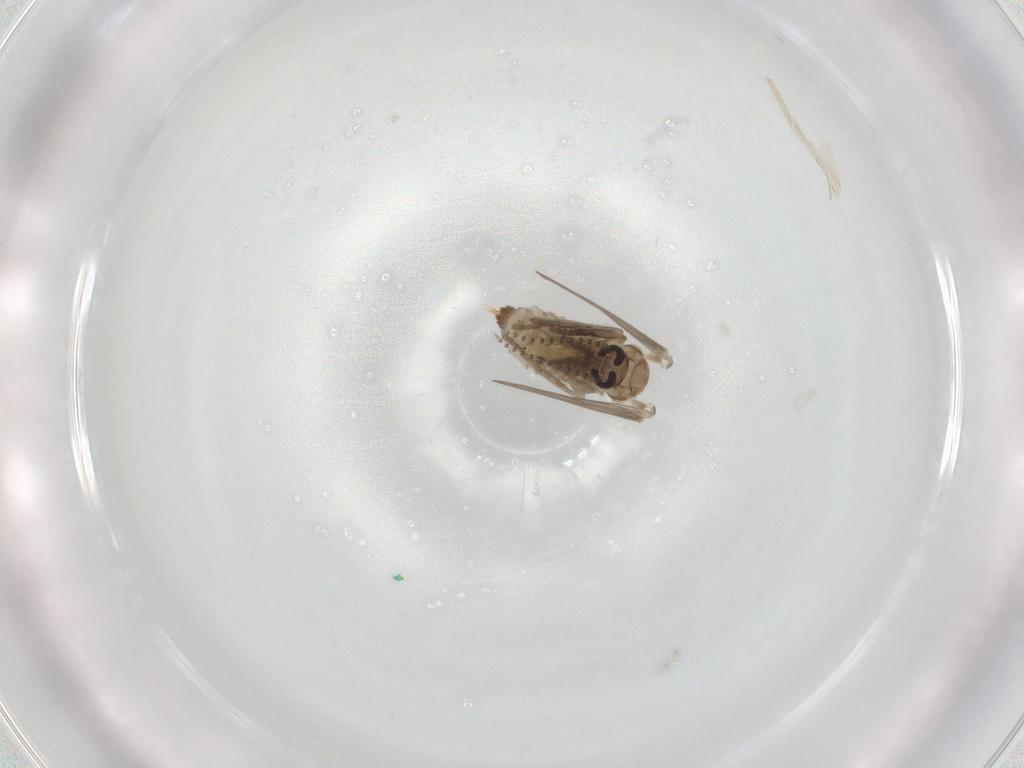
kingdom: Animalia
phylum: Arthropoda
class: Insecta
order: Diptera
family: Psychodidae
